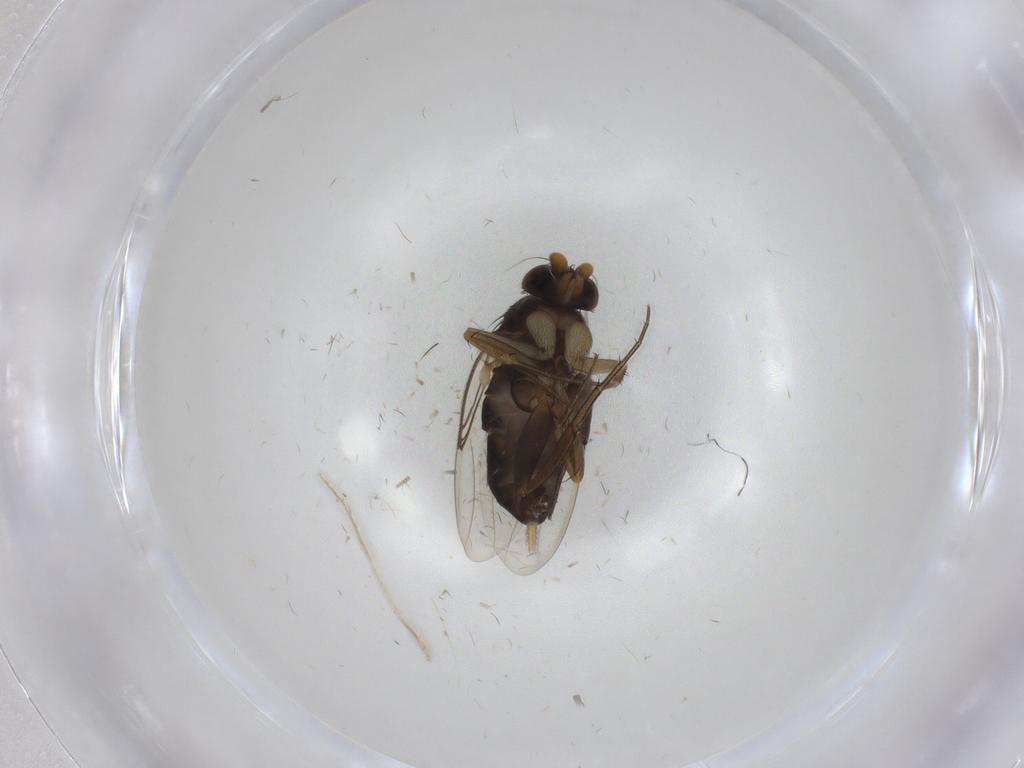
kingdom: Animalia
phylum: Arthropoda
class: Insecta
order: Diptera
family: Phoridae
